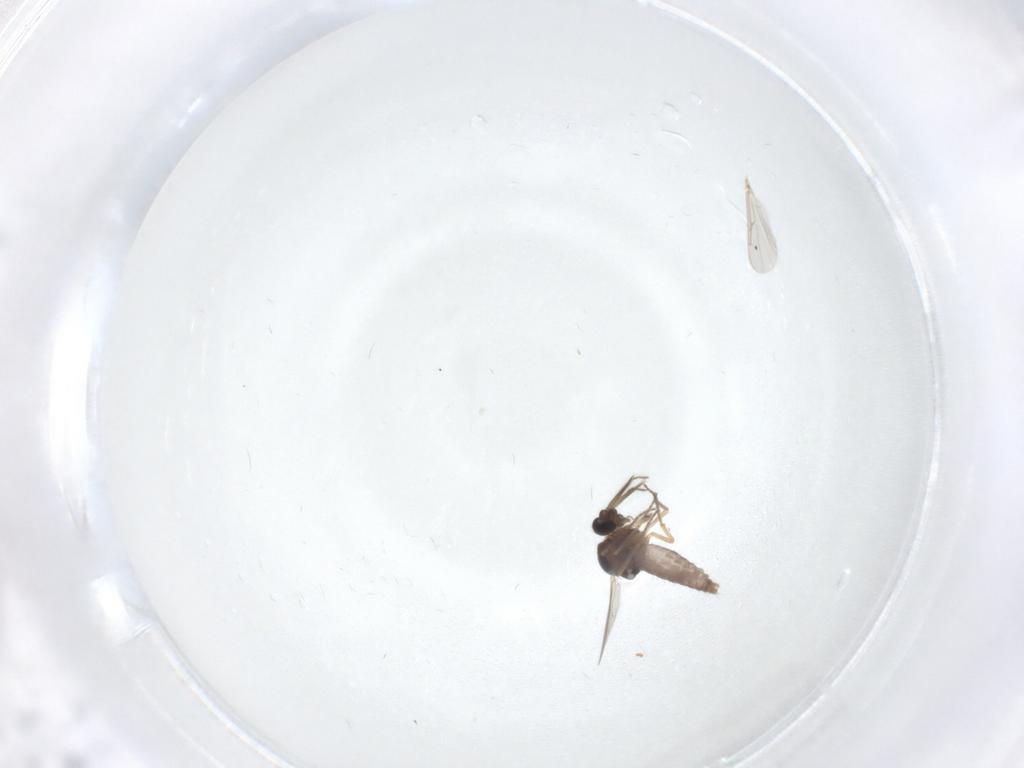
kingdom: Animalia
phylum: Arthropoda
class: Insecta
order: Diptera
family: Ceratopogonidae
